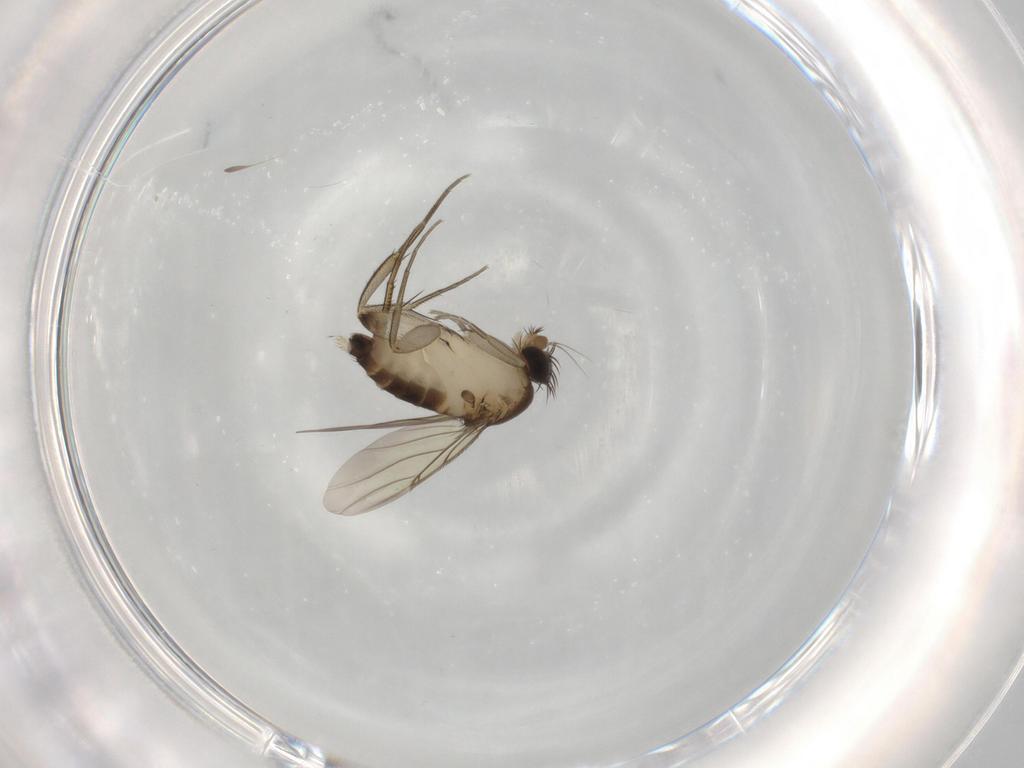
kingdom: Animalia
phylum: Arthropoda
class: Insecta
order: Diptera
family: Phoridae
